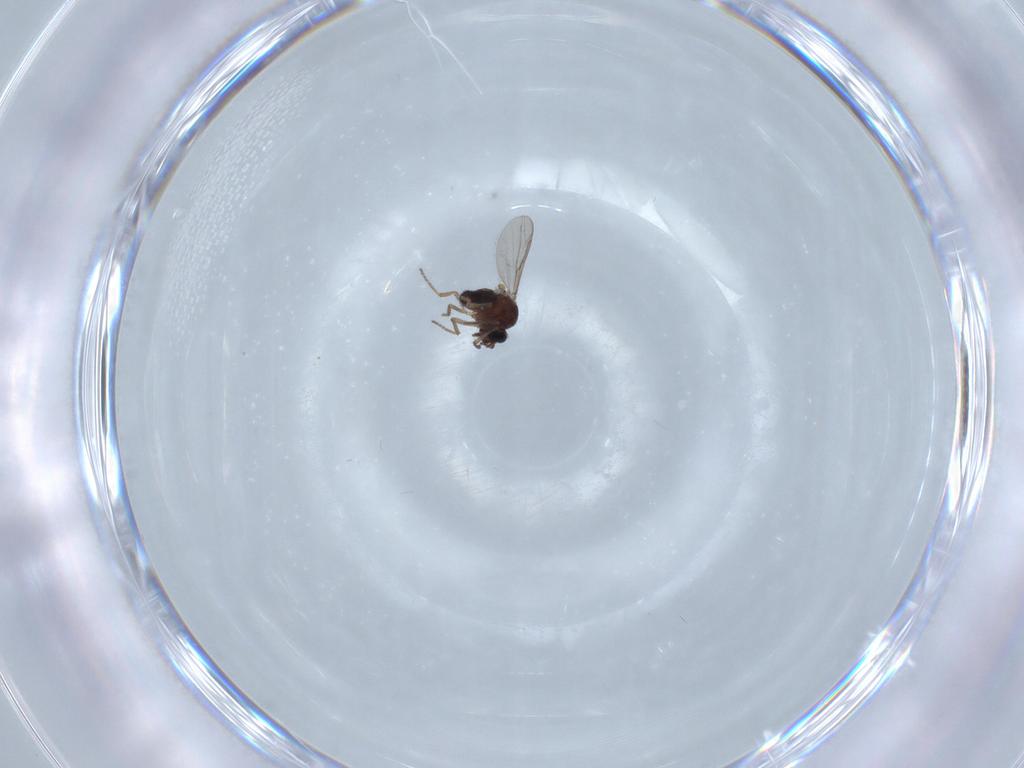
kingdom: Animalia
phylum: Arthropoda
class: Insecta
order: Diptera
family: Ceratopogonidae
